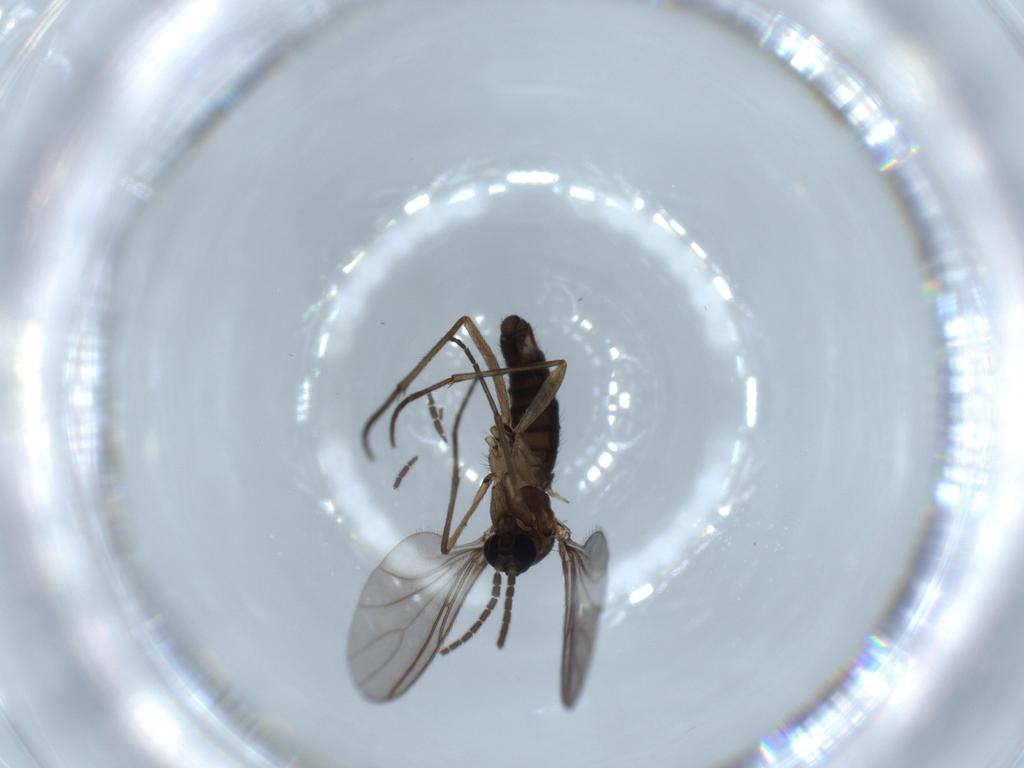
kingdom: Animalia
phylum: Arthropoda
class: Insecta
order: Diptera
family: Sciaridae
